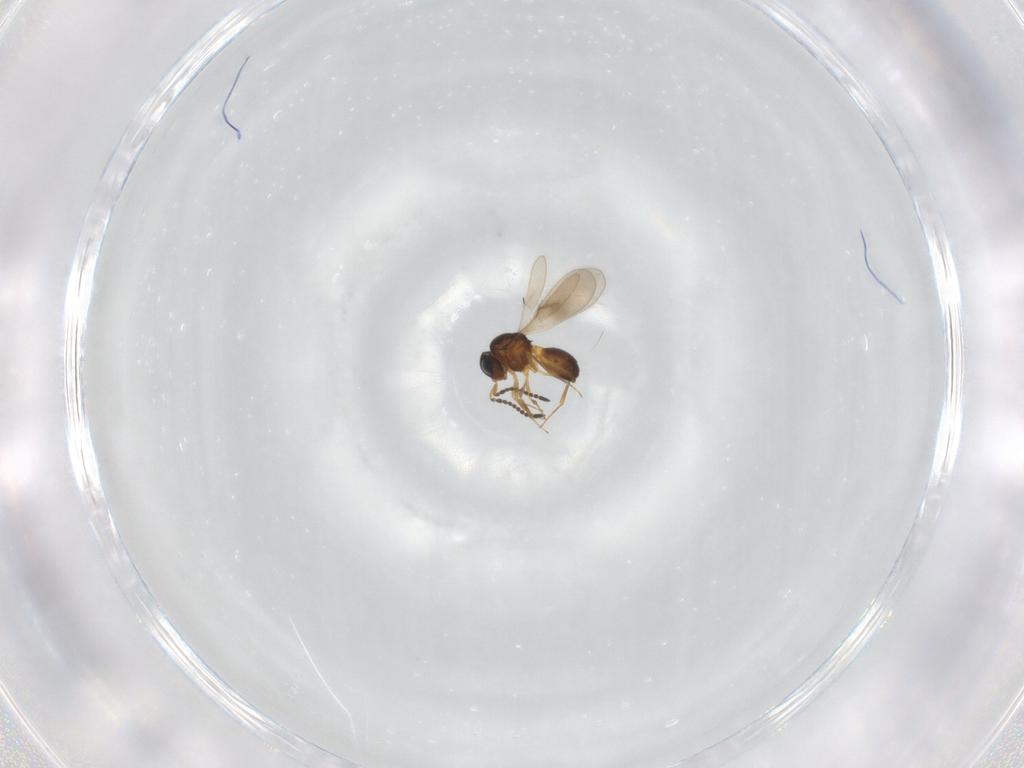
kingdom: Animalia
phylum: Arthropoda
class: Insecta
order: Hymenoptera
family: Scelionidae
